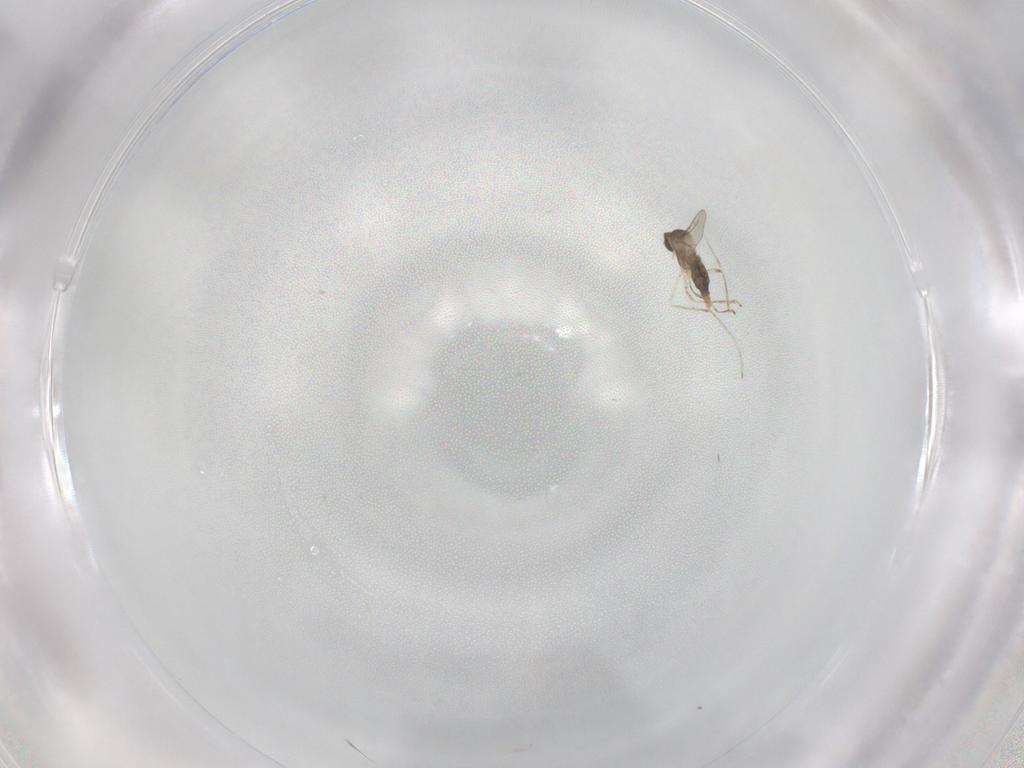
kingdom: Animalia
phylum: Arthropoda
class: Insecta
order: Diptera
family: Cecidomyiidae
